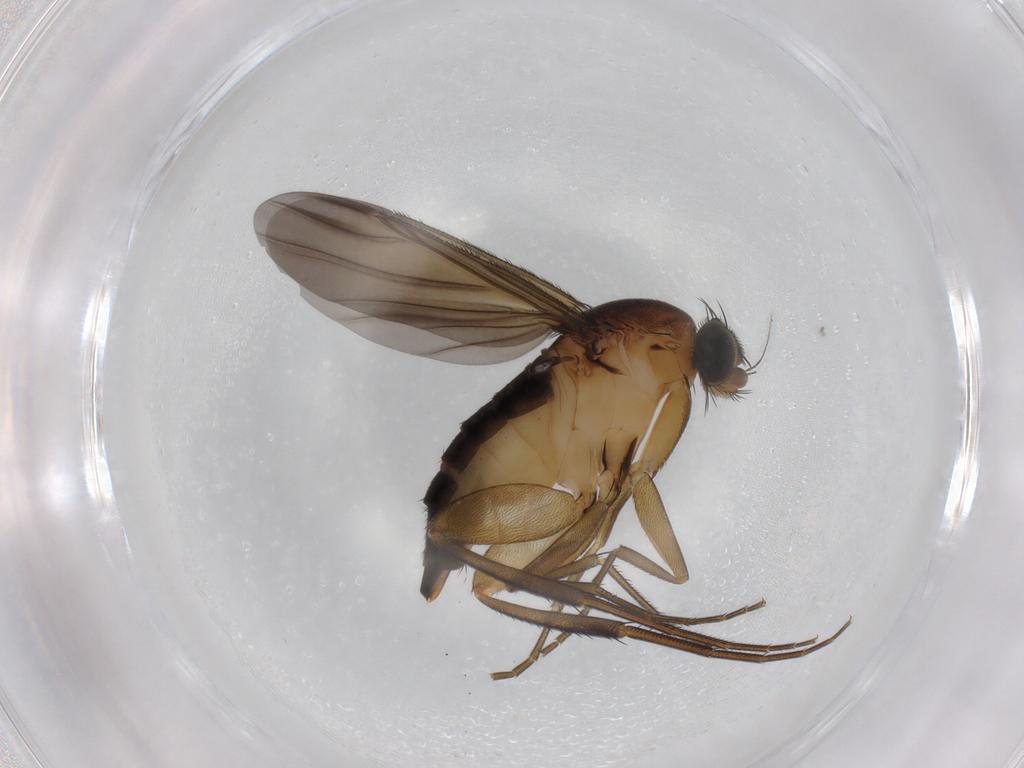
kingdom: Animalia
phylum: Arthropoda
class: Insecta
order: Diptera
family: Phoridae
